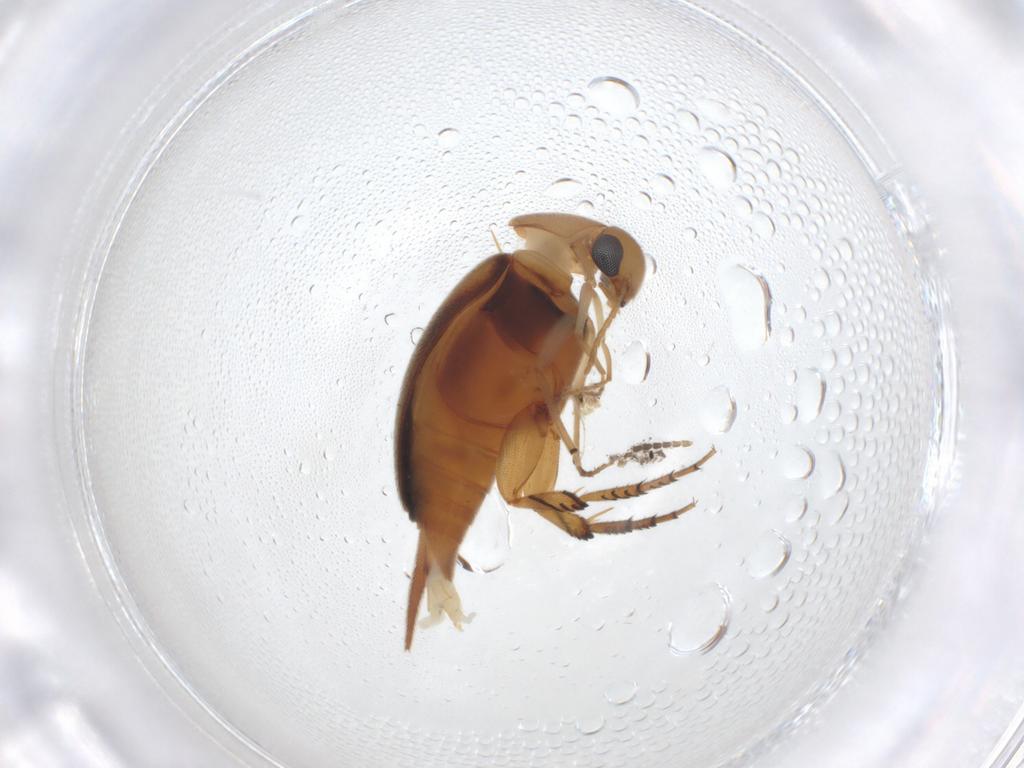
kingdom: Animalia
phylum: Arthropoda
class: Insecta
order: Coleoptera
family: Mordellidae
